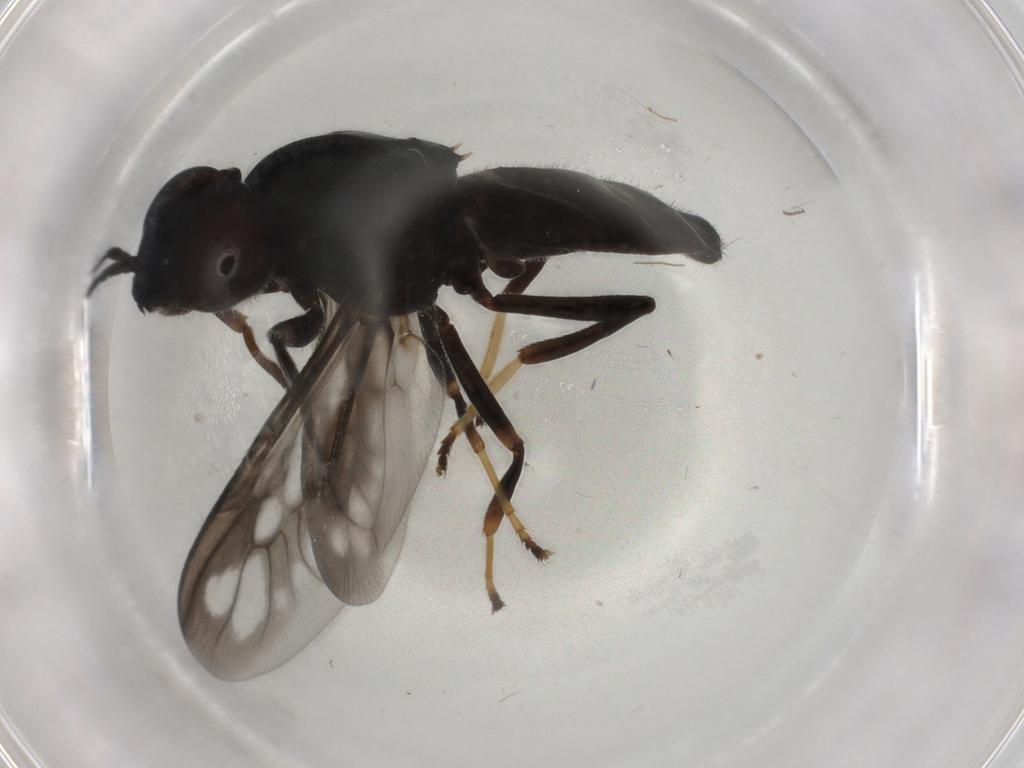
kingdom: Animalia
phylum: Arthropoda
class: Insecta
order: Diptera
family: Stratiomyidae
